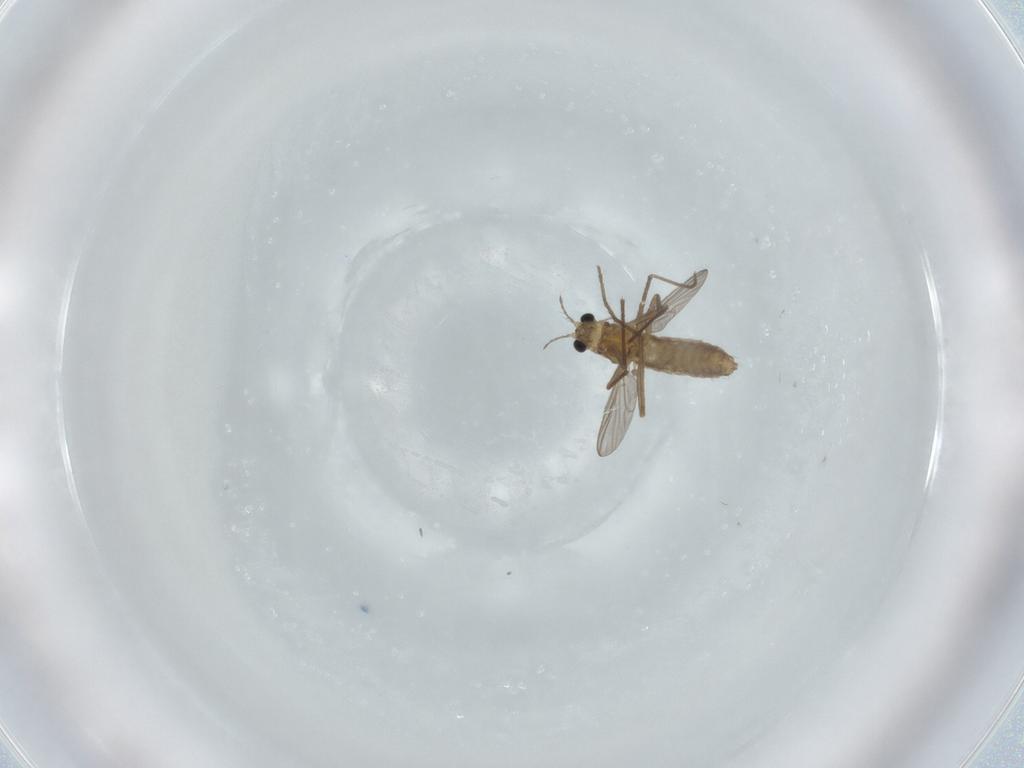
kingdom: Animalia
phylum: Arthropoda
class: Insecta
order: Diptera
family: Chironomidae
